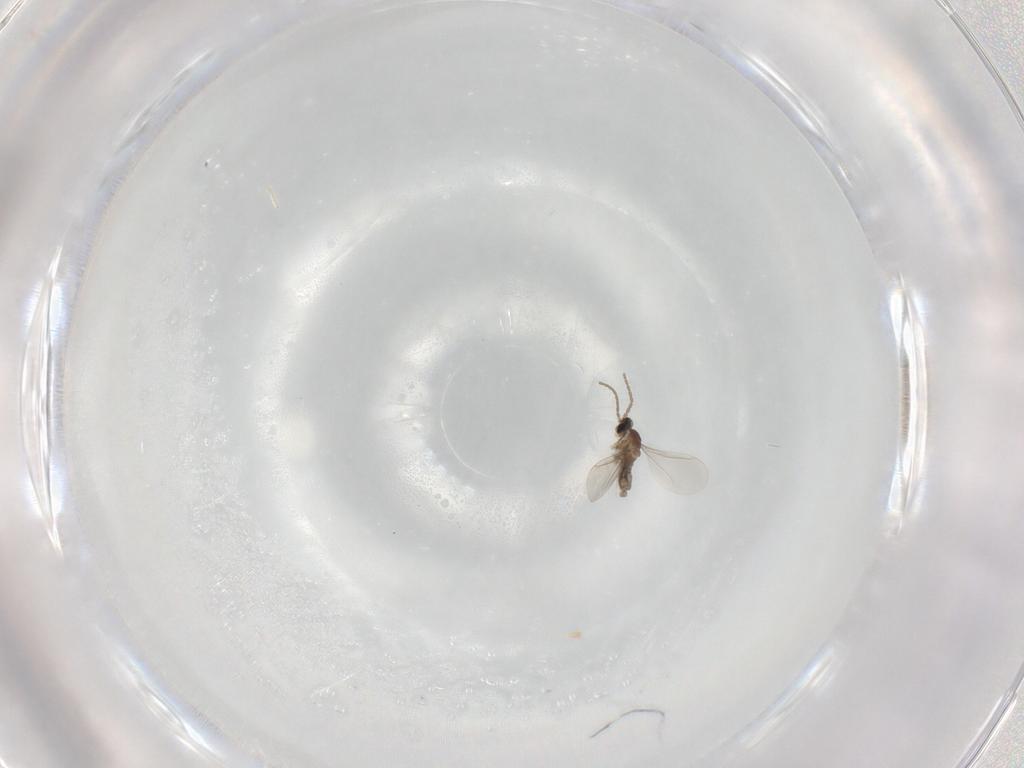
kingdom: Animalia
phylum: Arthropoda
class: Insecta
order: Diptera
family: Cecidomyiidae
